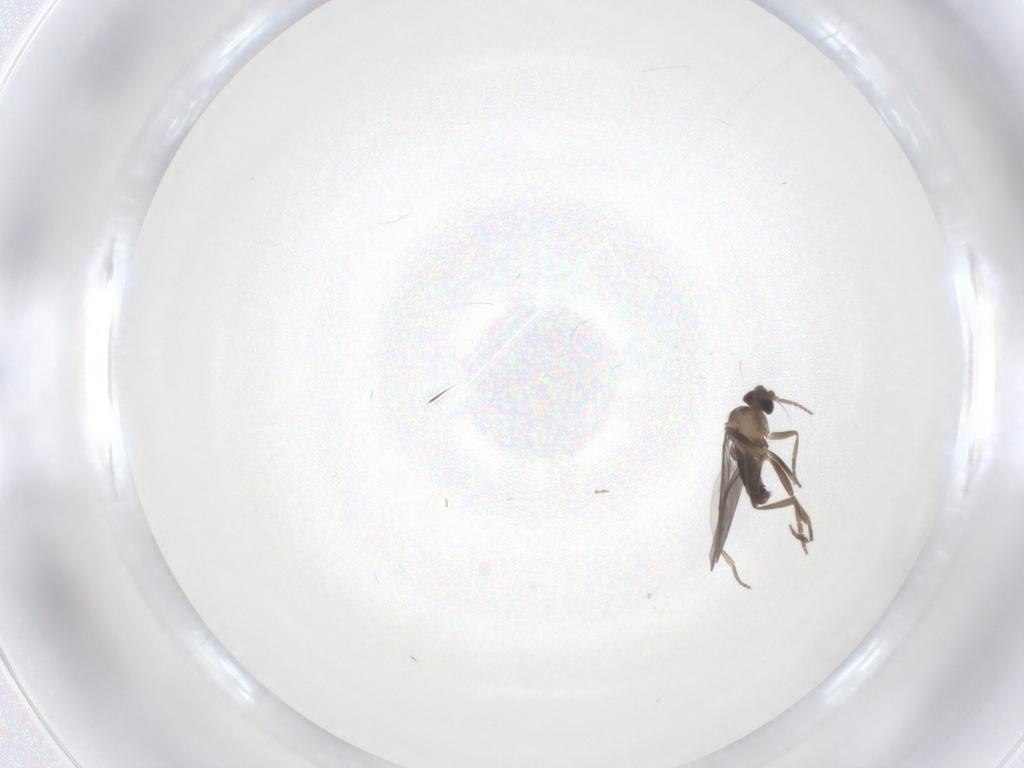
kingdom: Animalia
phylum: Arthropoda
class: Insecta
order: Diptera
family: Phoridae
